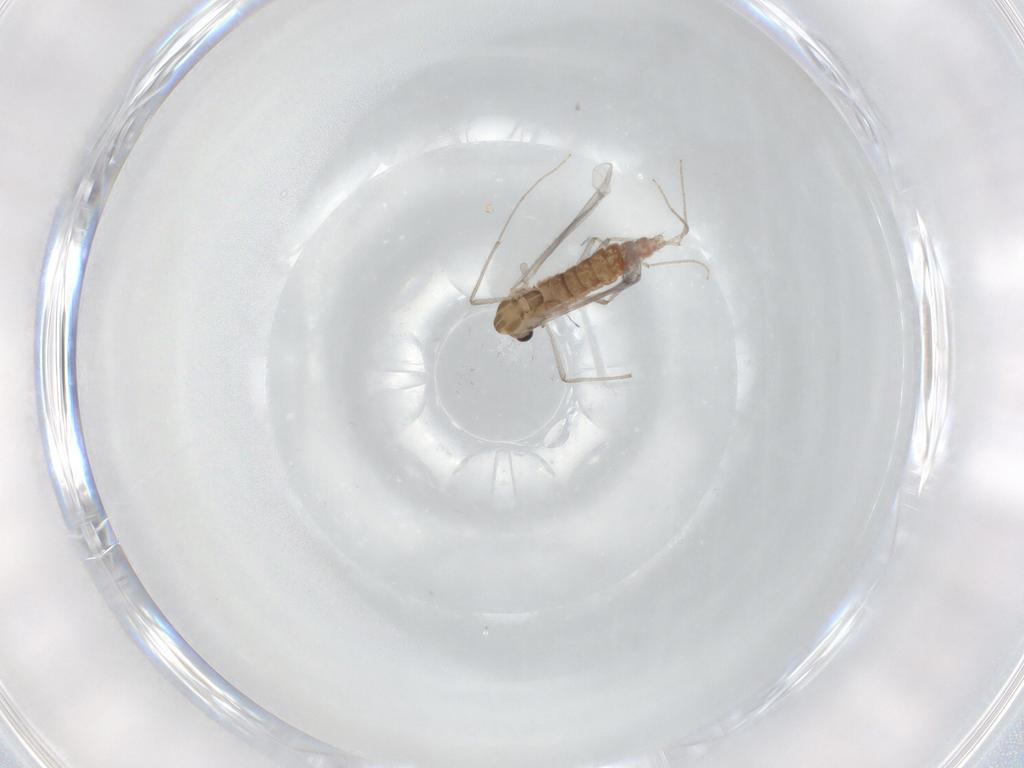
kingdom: Animalia
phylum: Arthropoda
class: Insecta
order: Diptera
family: Chironomidae
